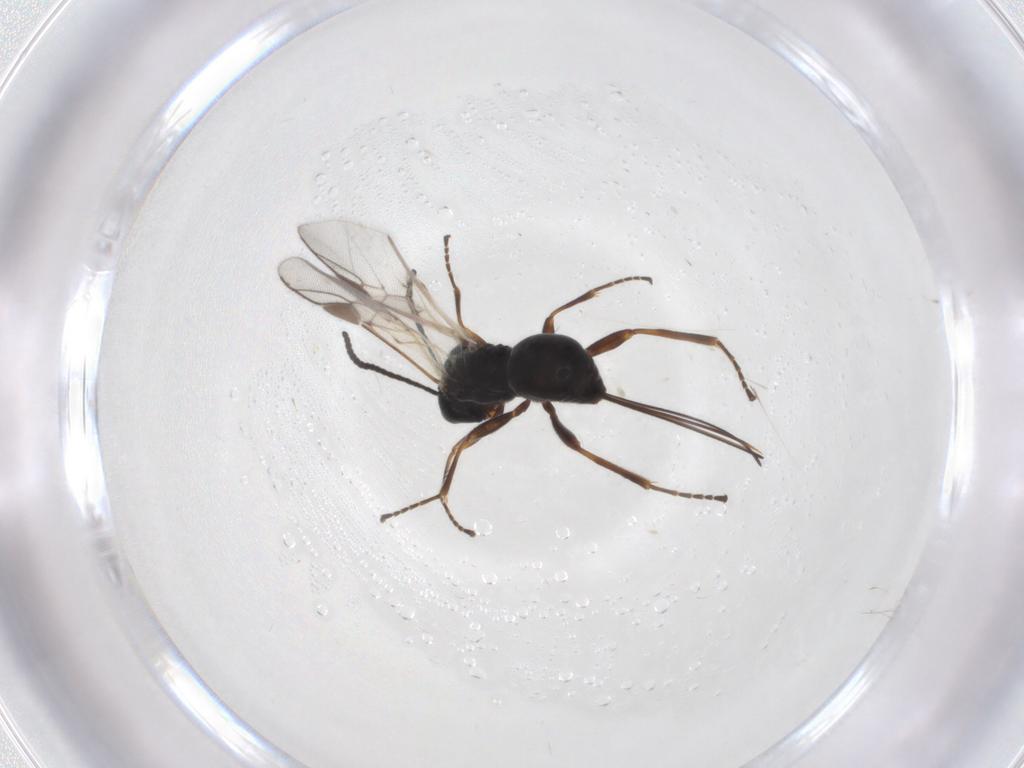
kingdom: Animalia
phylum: Arthropoda
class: Insecta
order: Hymenoptera
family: Braconidae
